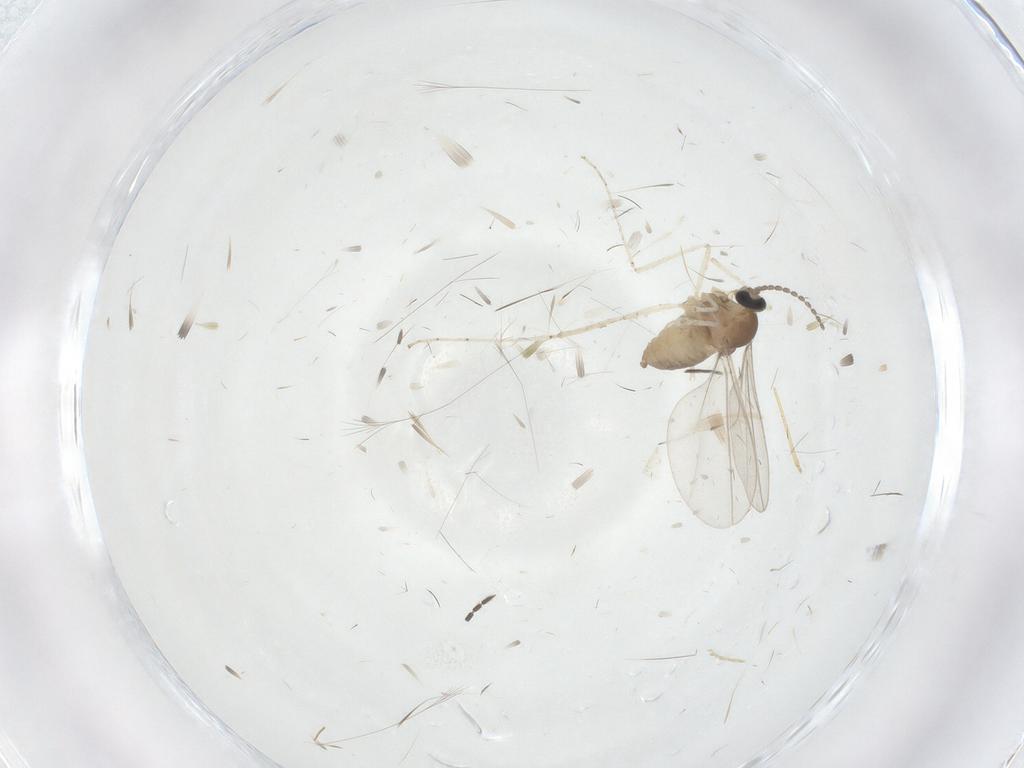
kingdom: Animalia
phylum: Arthropoda
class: Insecta
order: Diptera
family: Cecidomyiidae
